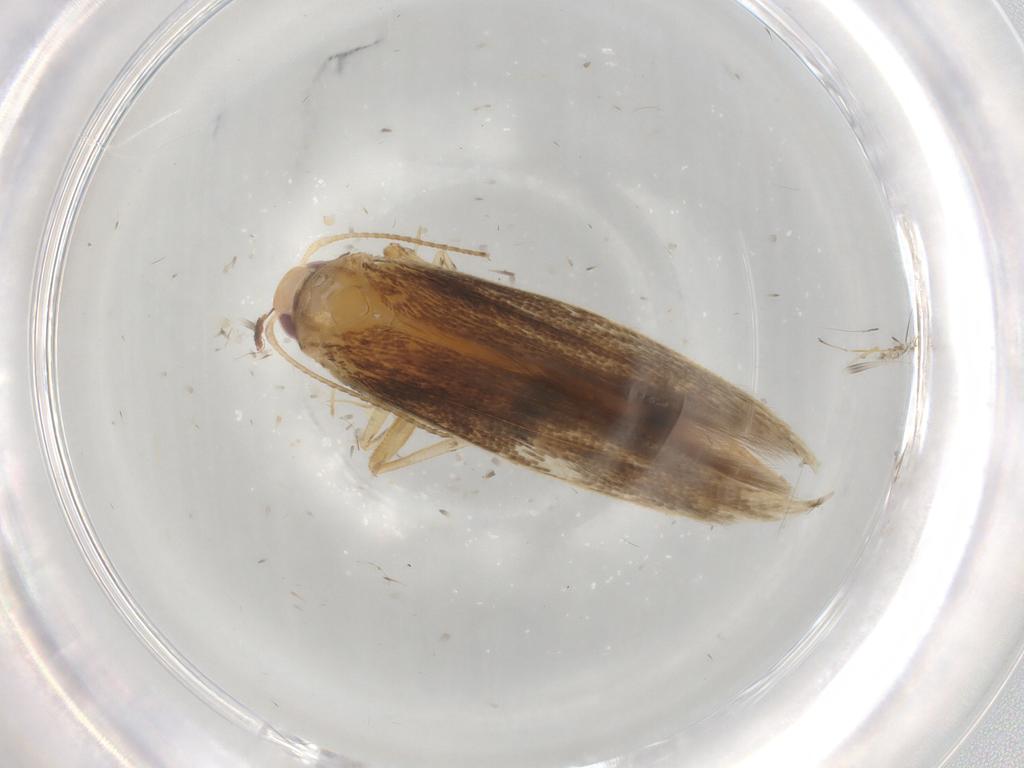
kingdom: Animalia
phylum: Arthropoda
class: Insecta
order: Lepidoptera
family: Cosmopterigidae
